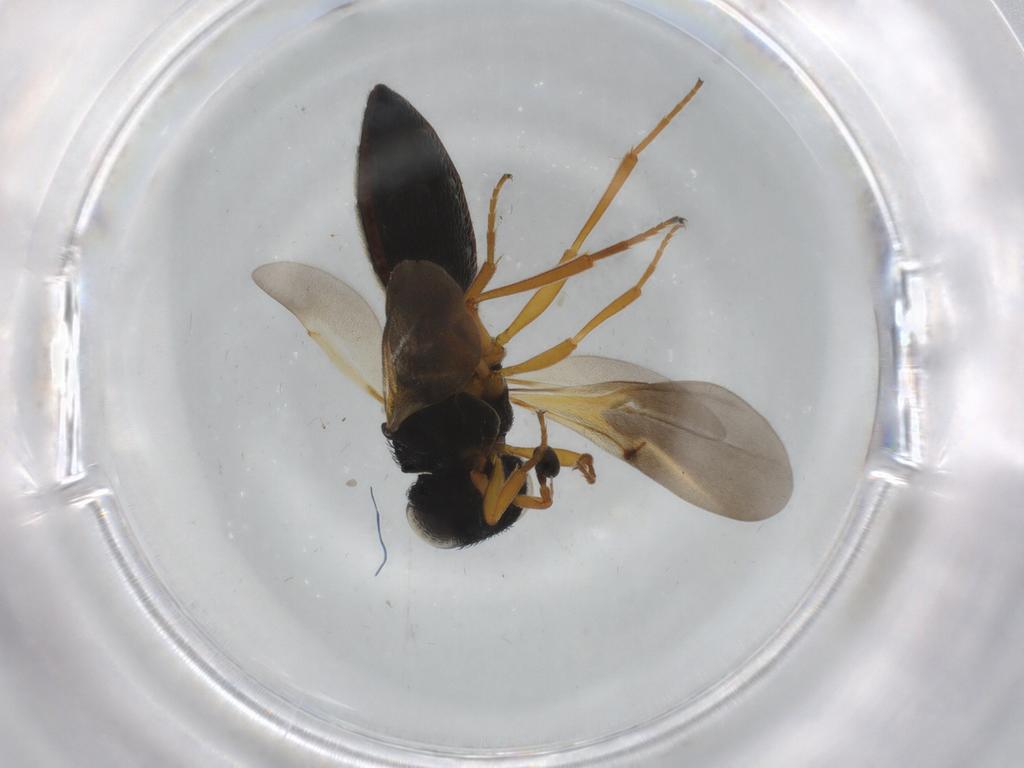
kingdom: Animalia
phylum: Arthropoda
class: Insecta
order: Hymenoptera
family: Scelionidae
